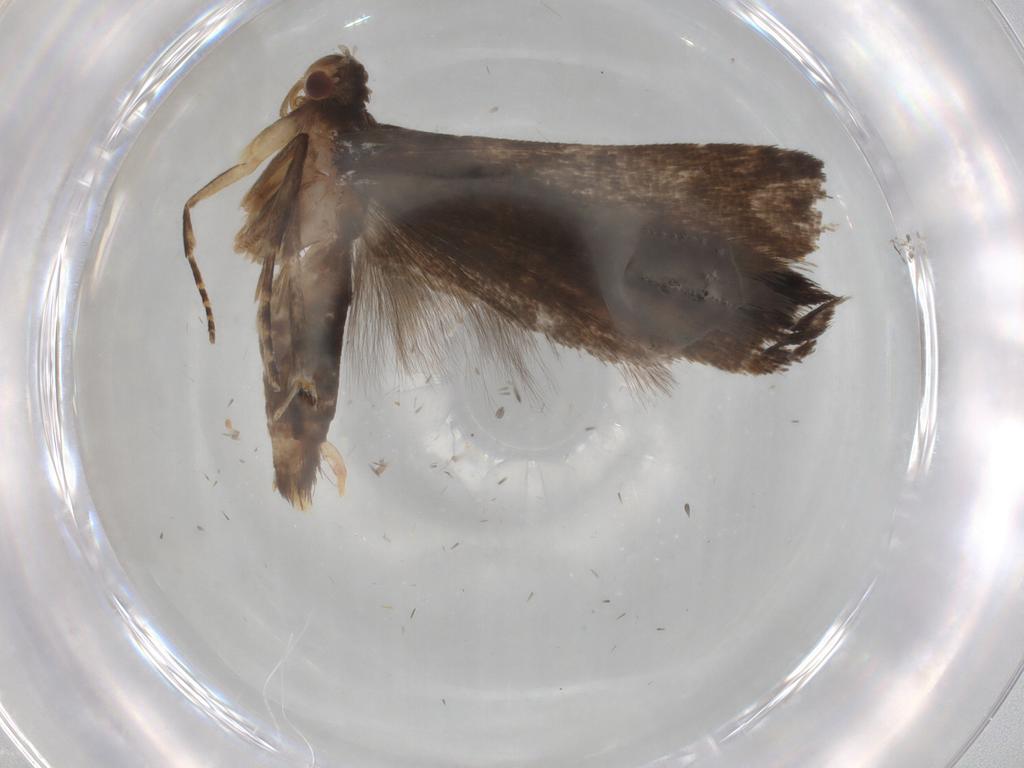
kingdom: Animalia
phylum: Arthropoda
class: Insecta
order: Lepidoptera
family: Gelechiidae
